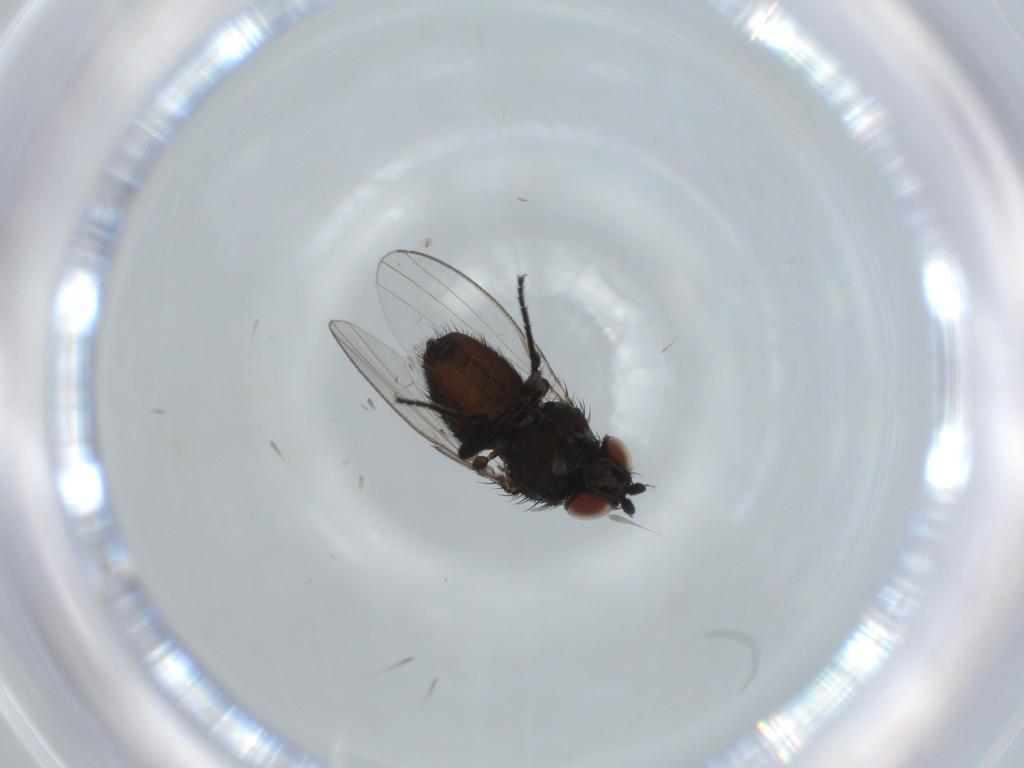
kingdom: Animalia
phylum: Arthropoda
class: Insecta
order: Diptera
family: Milichiidae
